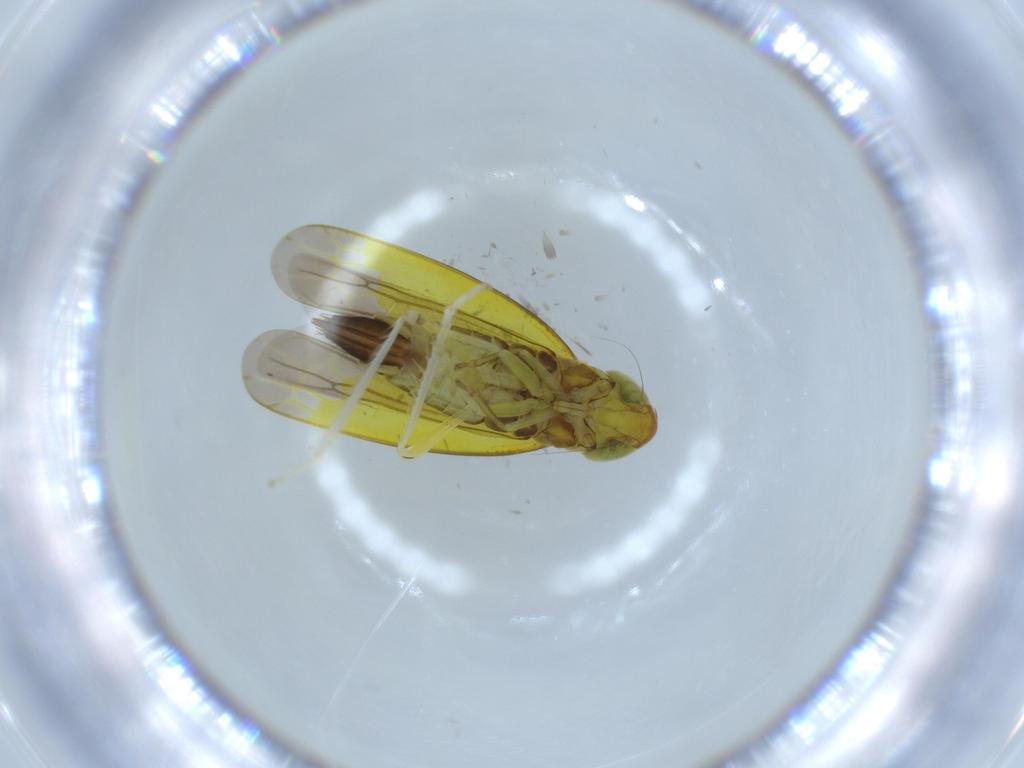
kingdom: Animalia
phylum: Arthropoda
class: Insecta
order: Hemiptera
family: Cicadellidae
